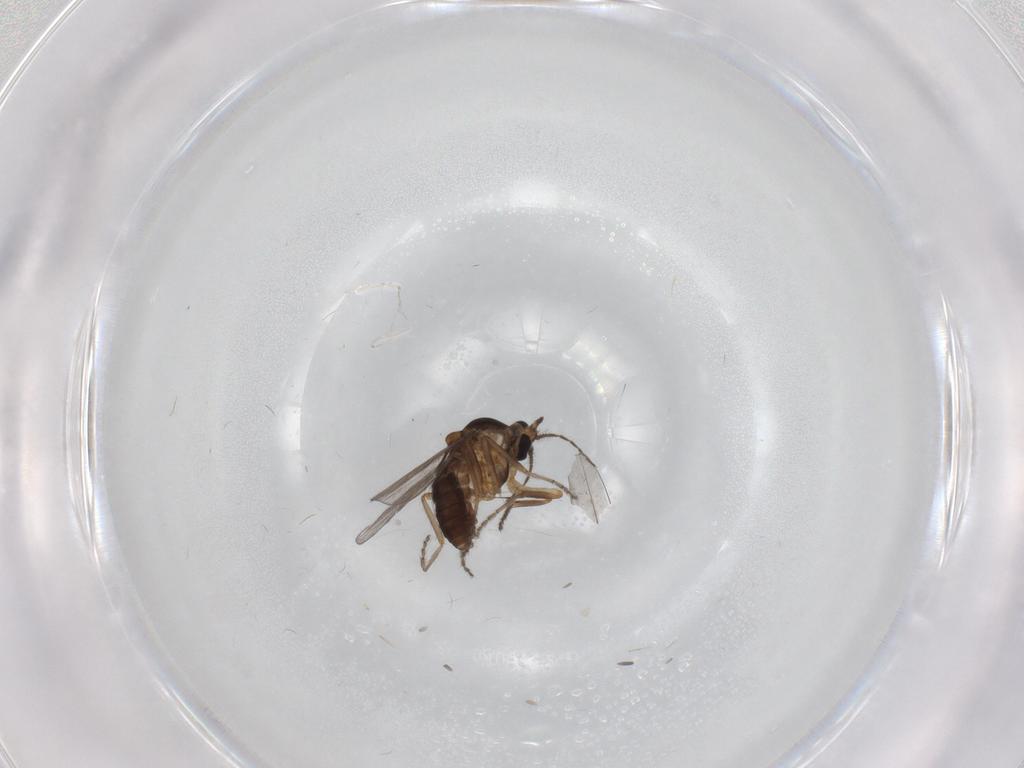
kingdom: Animalia
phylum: Arthropoda
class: Insecta
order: Diptera
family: Ceratopogonidae
